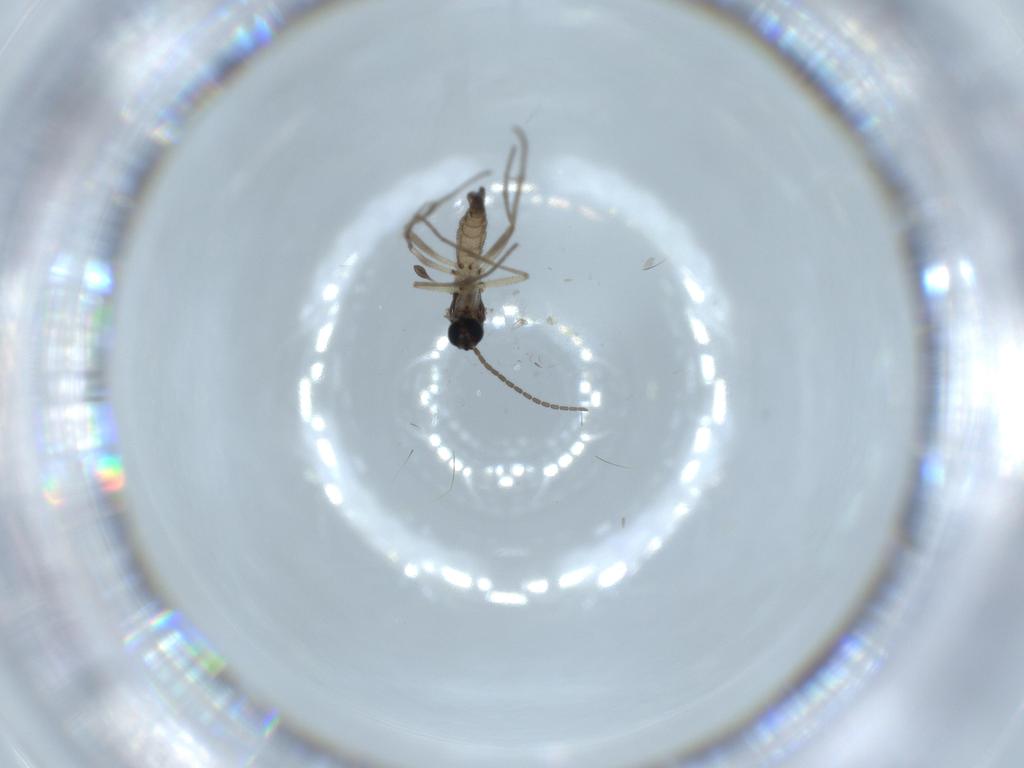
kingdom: Animalia
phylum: Arthropoda
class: Insecta
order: Diptera
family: Sciaridae
